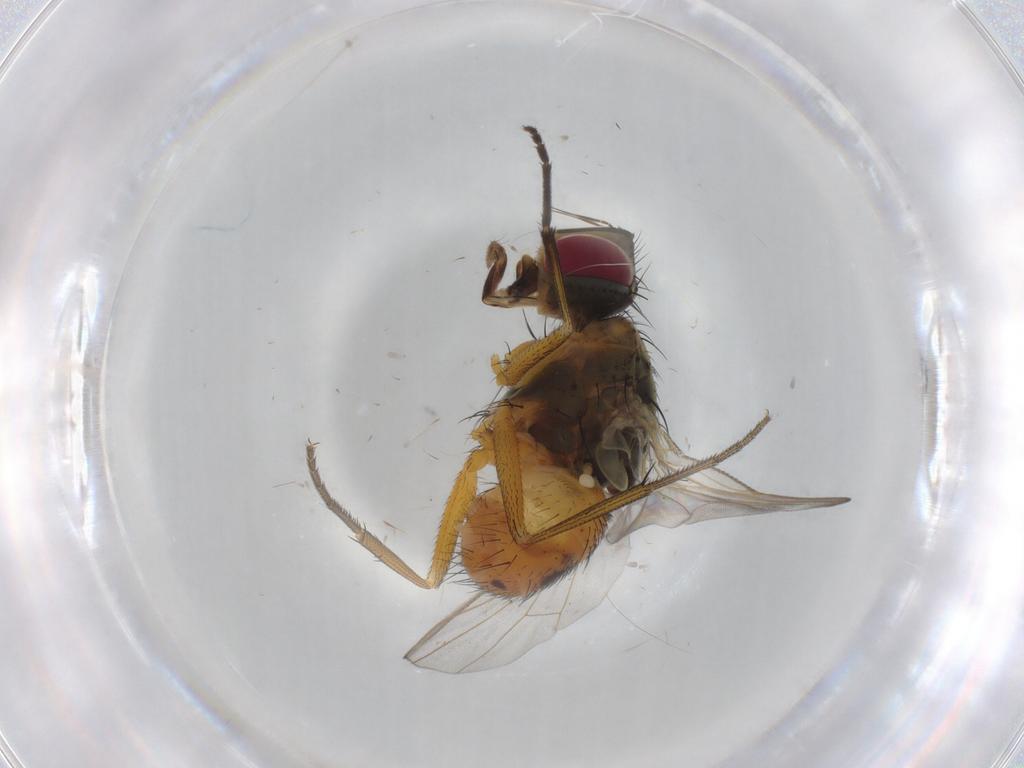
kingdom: Animalia
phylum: Arthropoda
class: Insecta
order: Diptera
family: Muscidae
